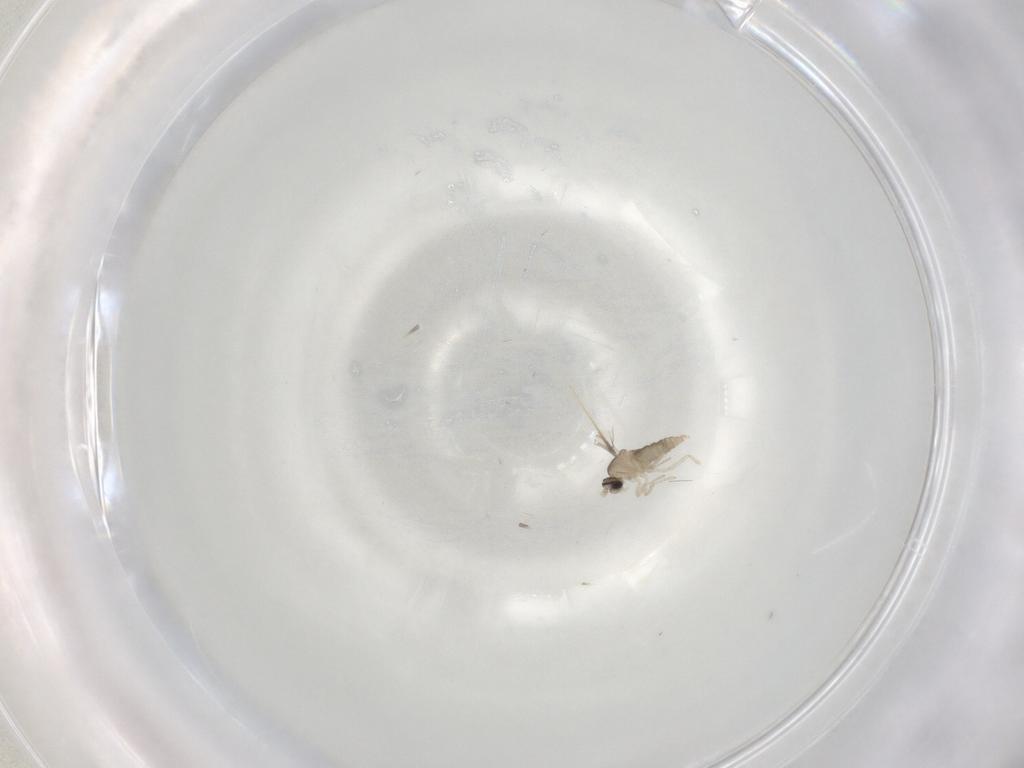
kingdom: Animalia
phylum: Arthropoda
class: Insecta
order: Diptera
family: Cecidomyiidae
